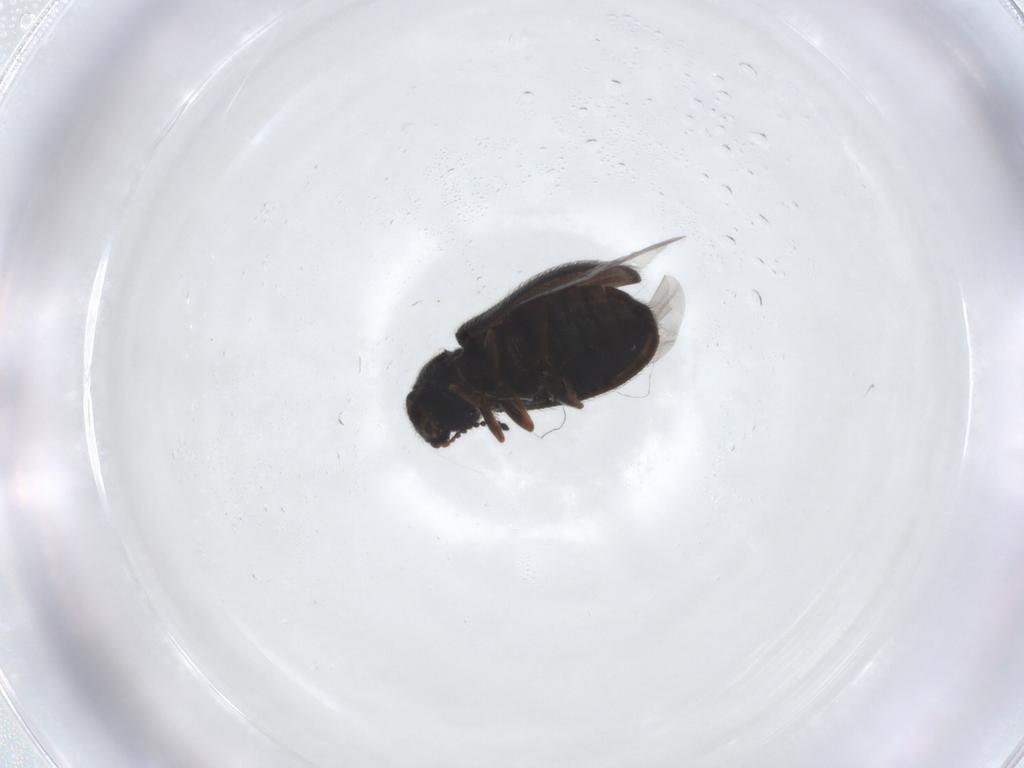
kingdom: Animalia
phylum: Arthropoda
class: Insecta
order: Coleoptera
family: Melyridae
